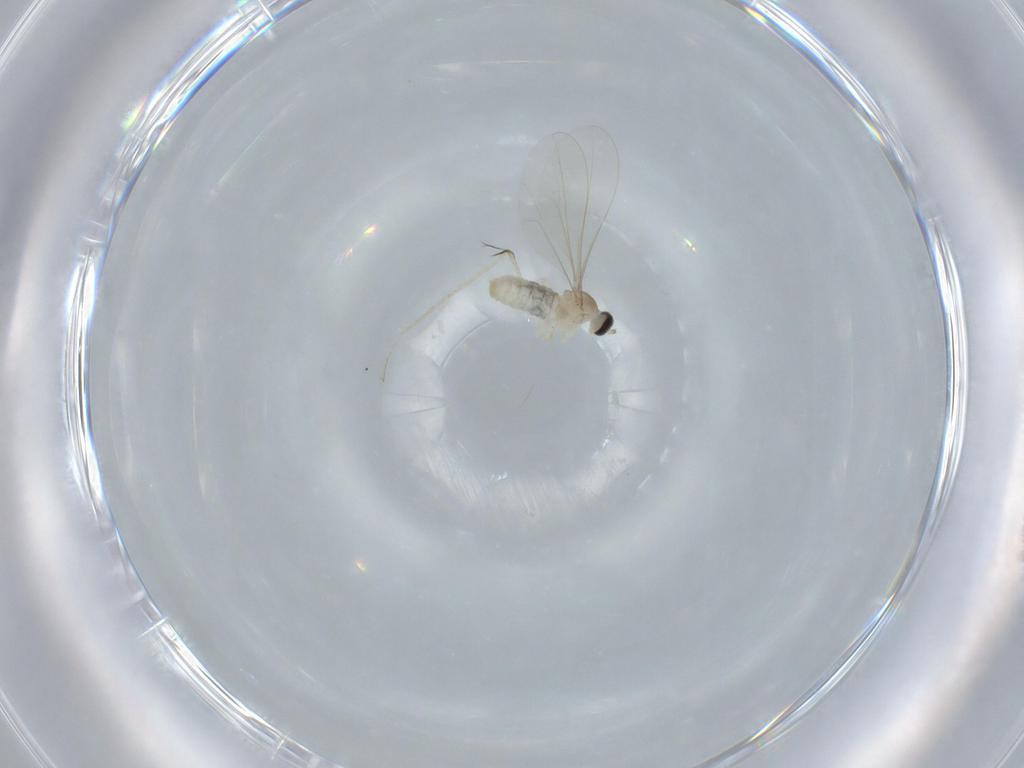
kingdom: Animalia
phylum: Arthropoda
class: Insecta
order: Diptera
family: Cecidomyiidae
